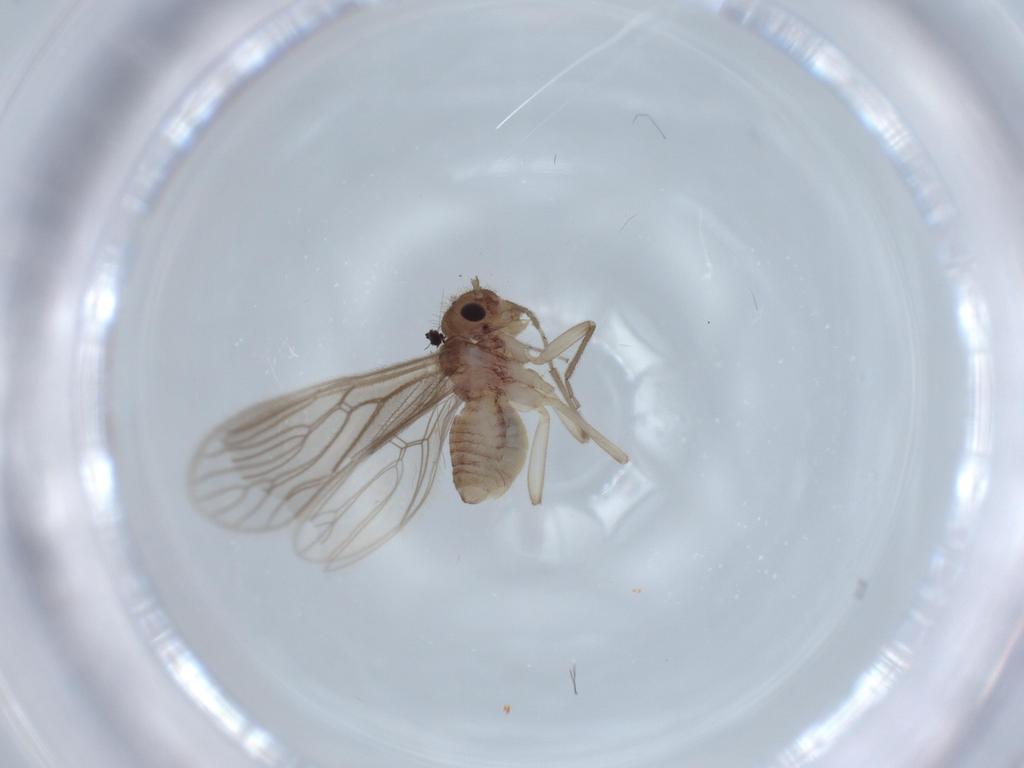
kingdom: Animalia
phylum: Arthropoda
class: Insecta
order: Psocodea
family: Cladiopsocidae
